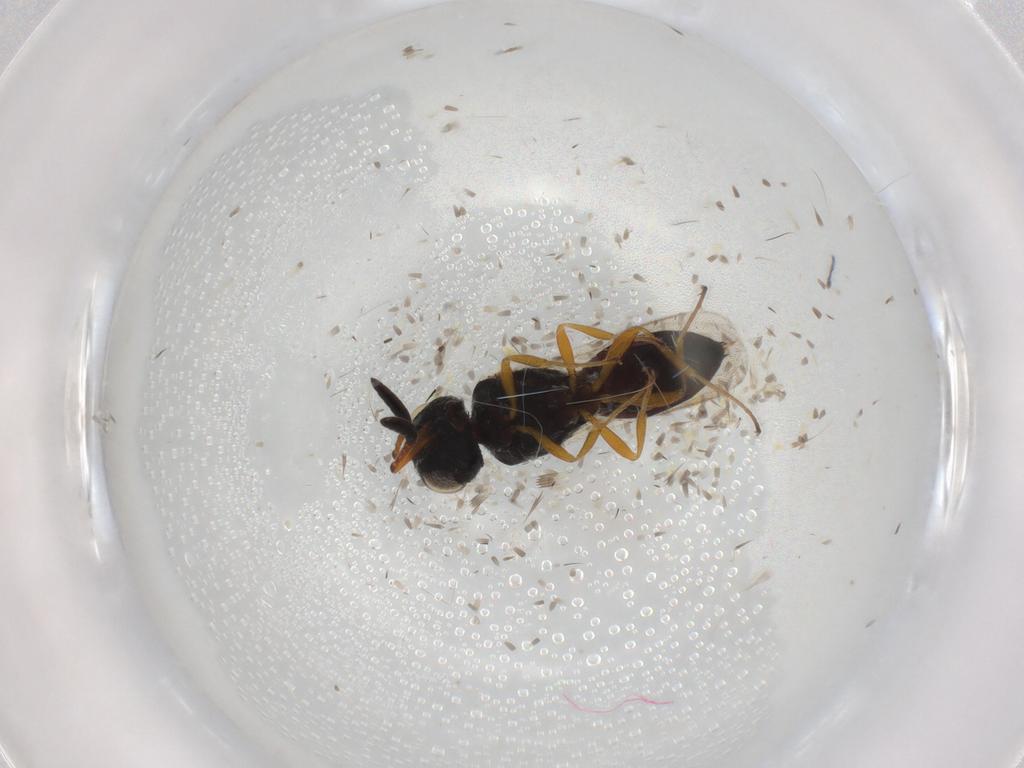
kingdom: Animalia
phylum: Arthropoda
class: Insecta
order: Hymenoptera
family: Scelionidae
